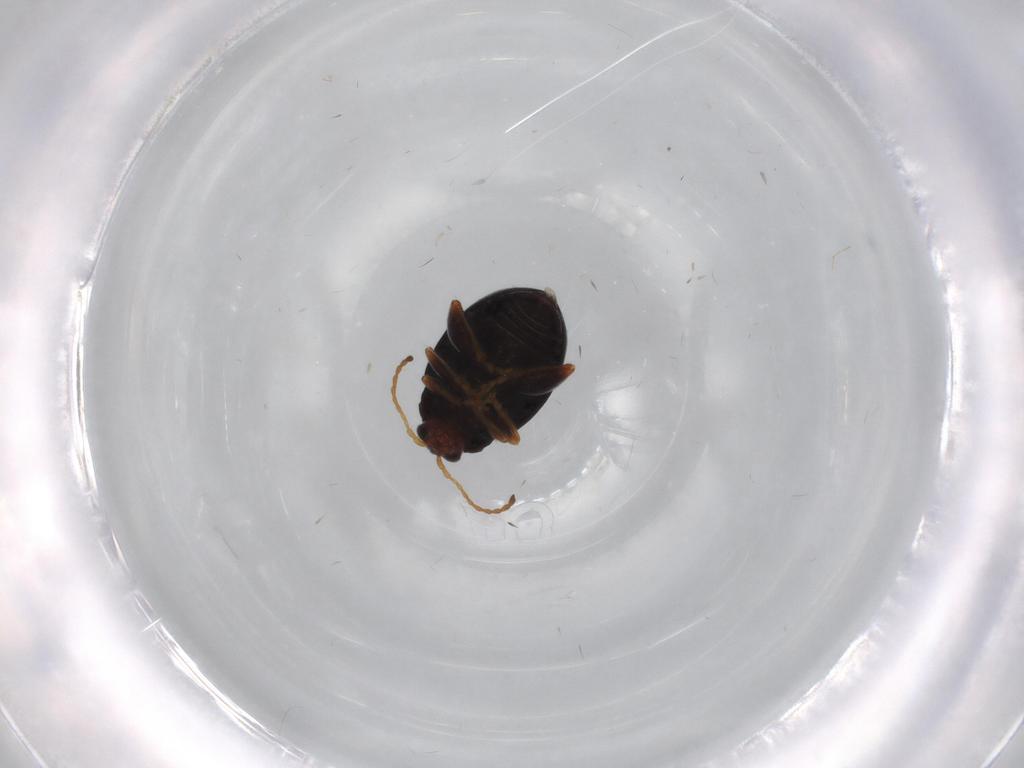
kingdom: Animalia
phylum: Arthropoda
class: Insecta
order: Coleoptera
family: Chrysomelidae
